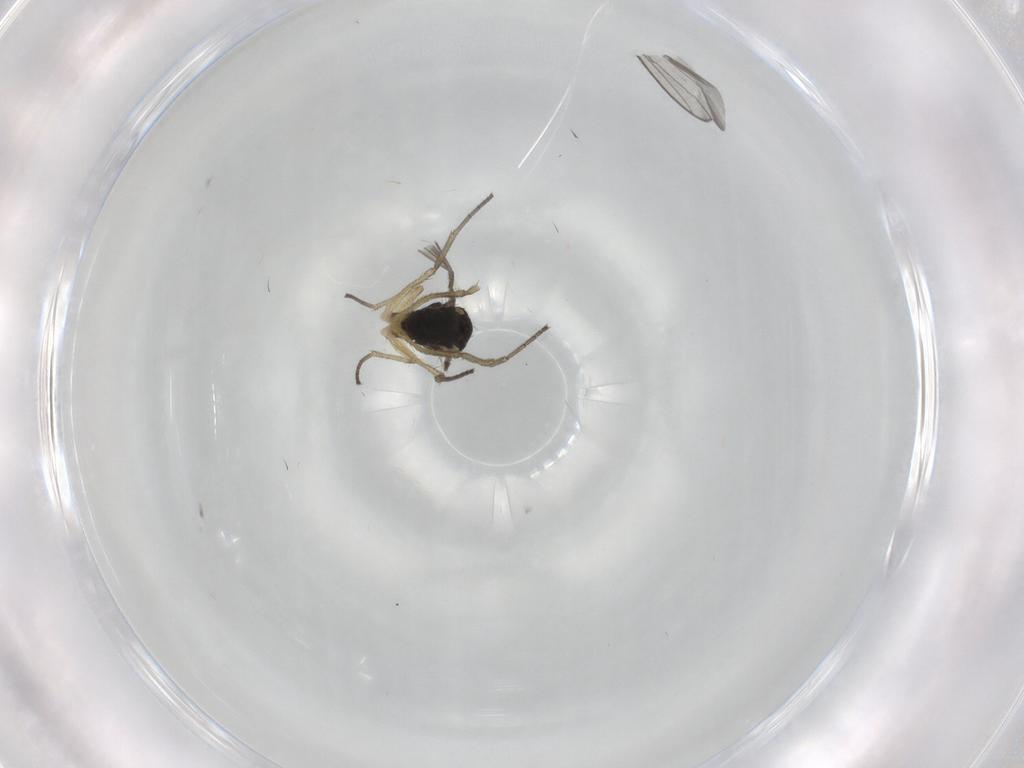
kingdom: Animalia
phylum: Arthropoda
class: Insecta
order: Diptera
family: Dolichopodidae
